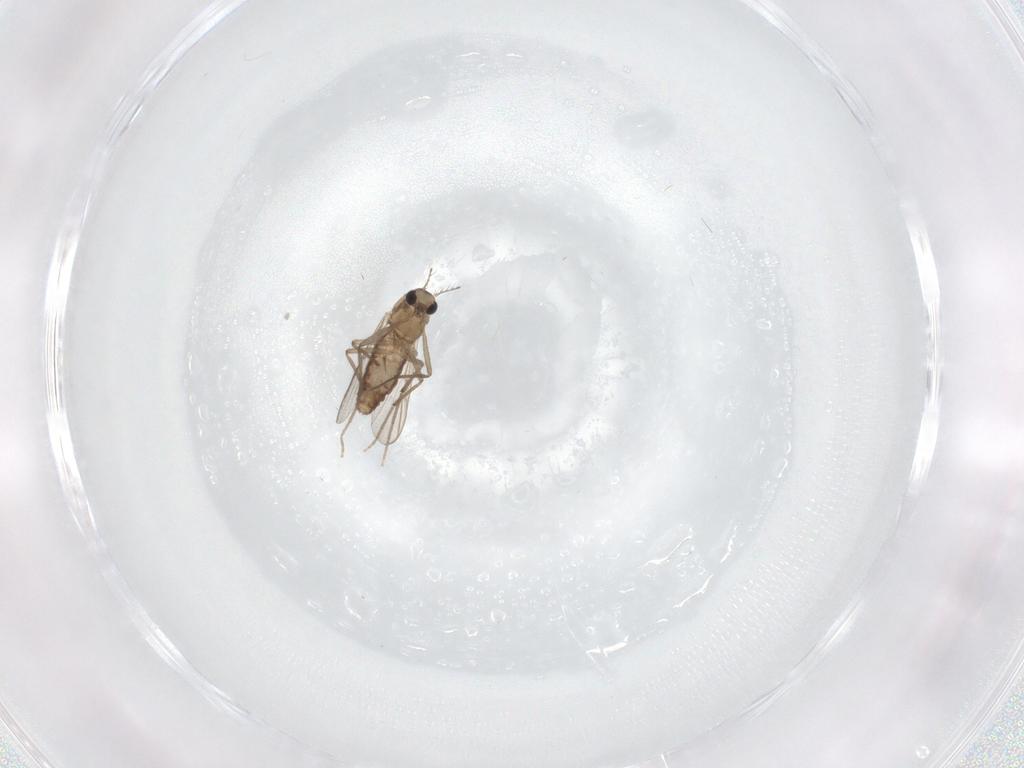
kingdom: Animalia
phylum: Arthropoda
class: Insecta
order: Diptera
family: Chironomidae
